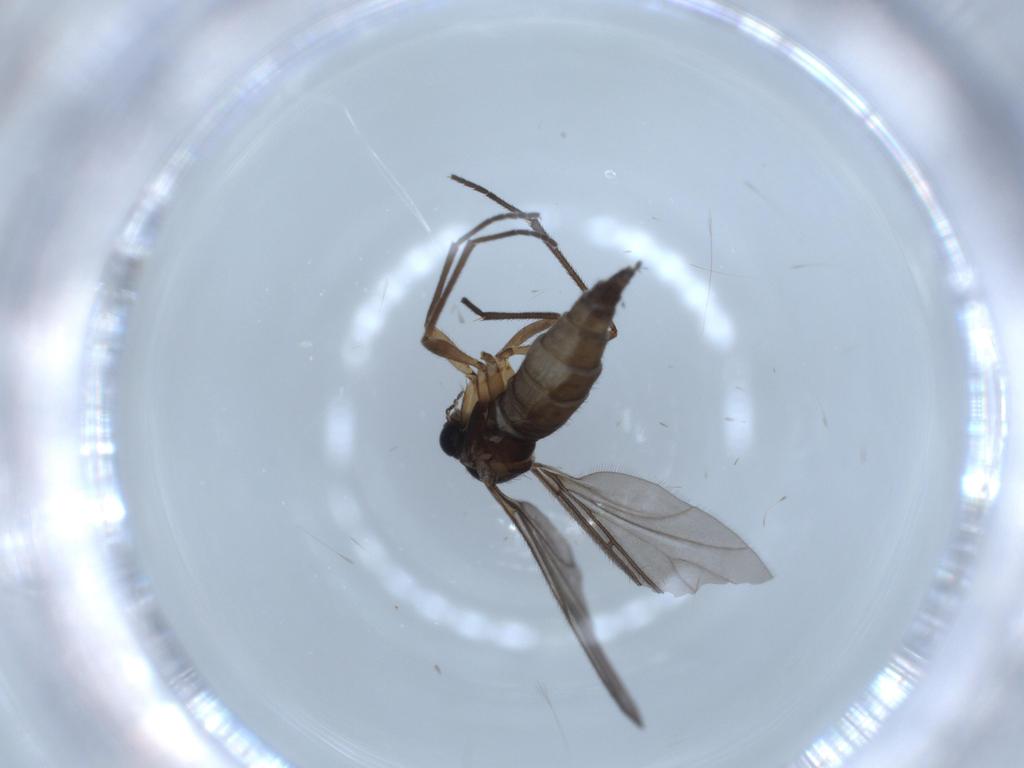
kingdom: Animalia
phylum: Arthropoda
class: Insecta
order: Diptera
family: Sciaridae
